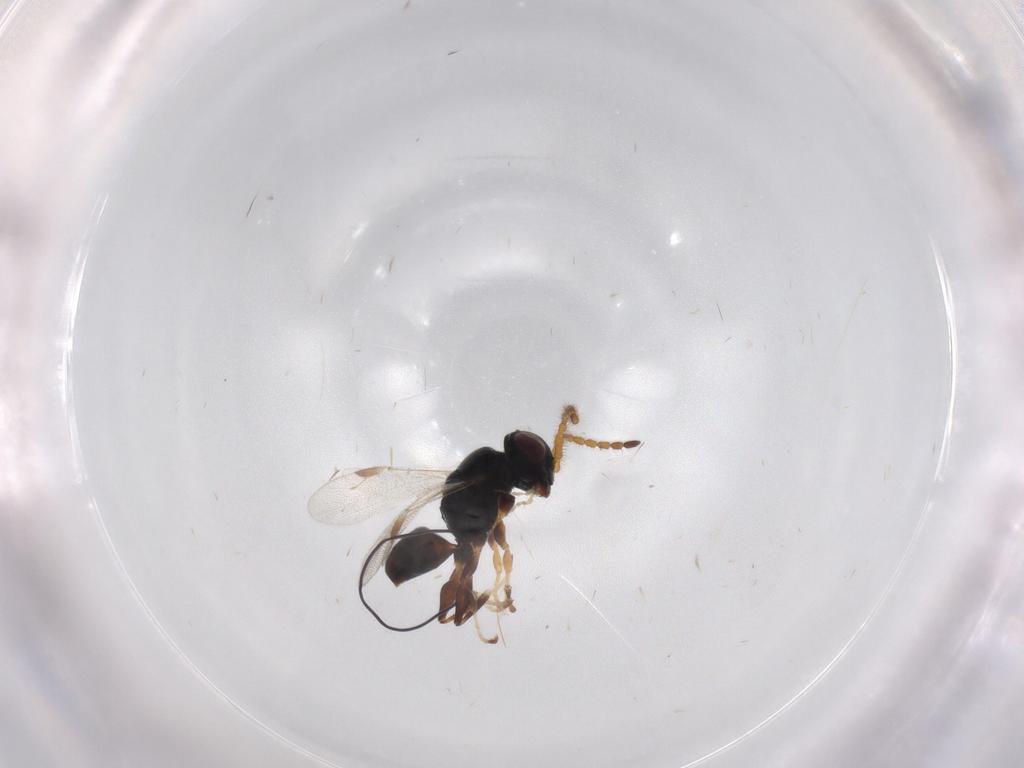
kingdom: Animalia
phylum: Arthropoda
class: Insecta
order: Hymenoptera
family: Dryinidae
